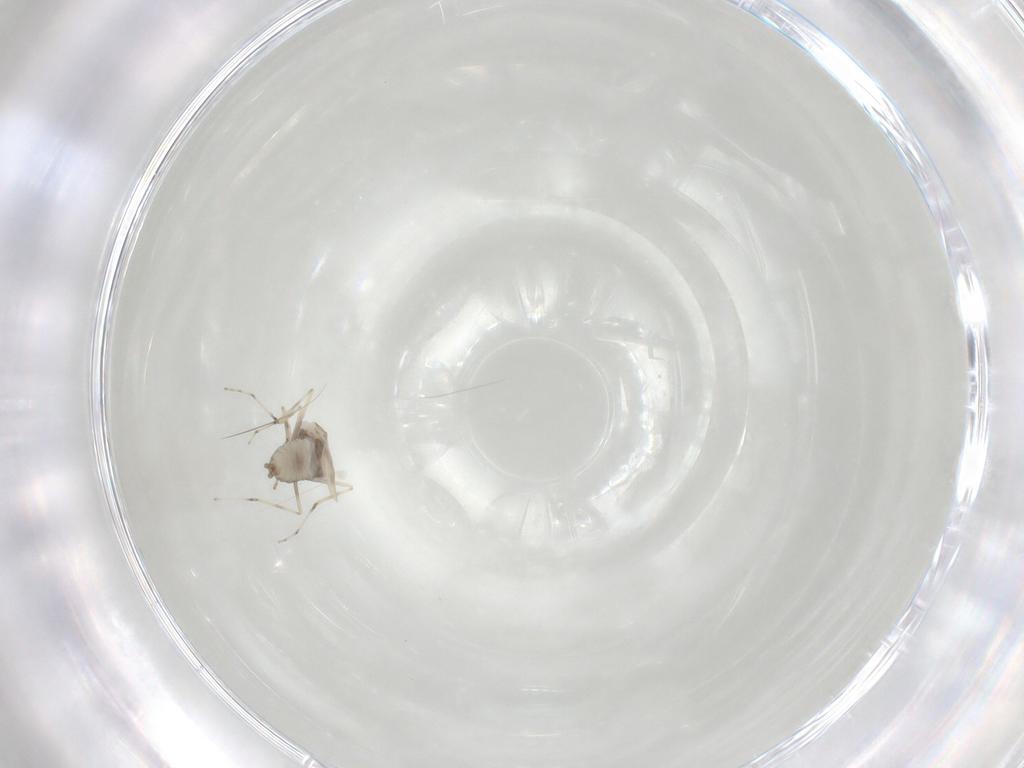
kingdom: Animalia
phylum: Arthropoda
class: Insecta
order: Diptera
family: Cecidomyiidae
